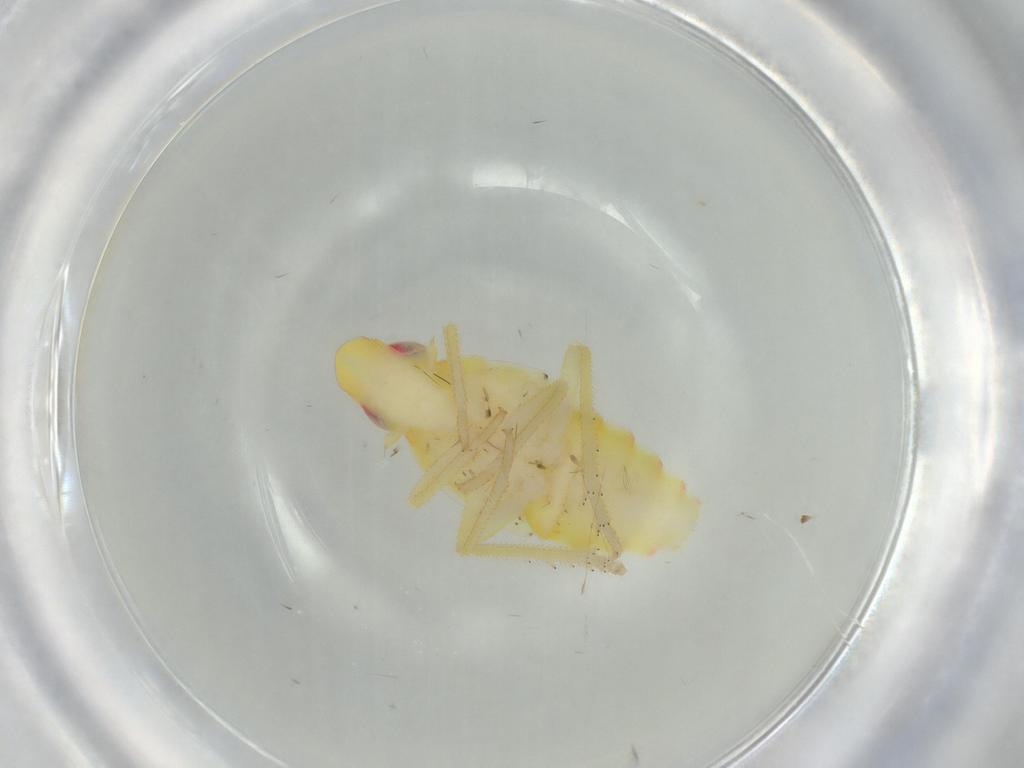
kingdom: Animalia
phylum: Arthropoda
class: Insecta
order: Hemiptera
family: Tropiduchidae
